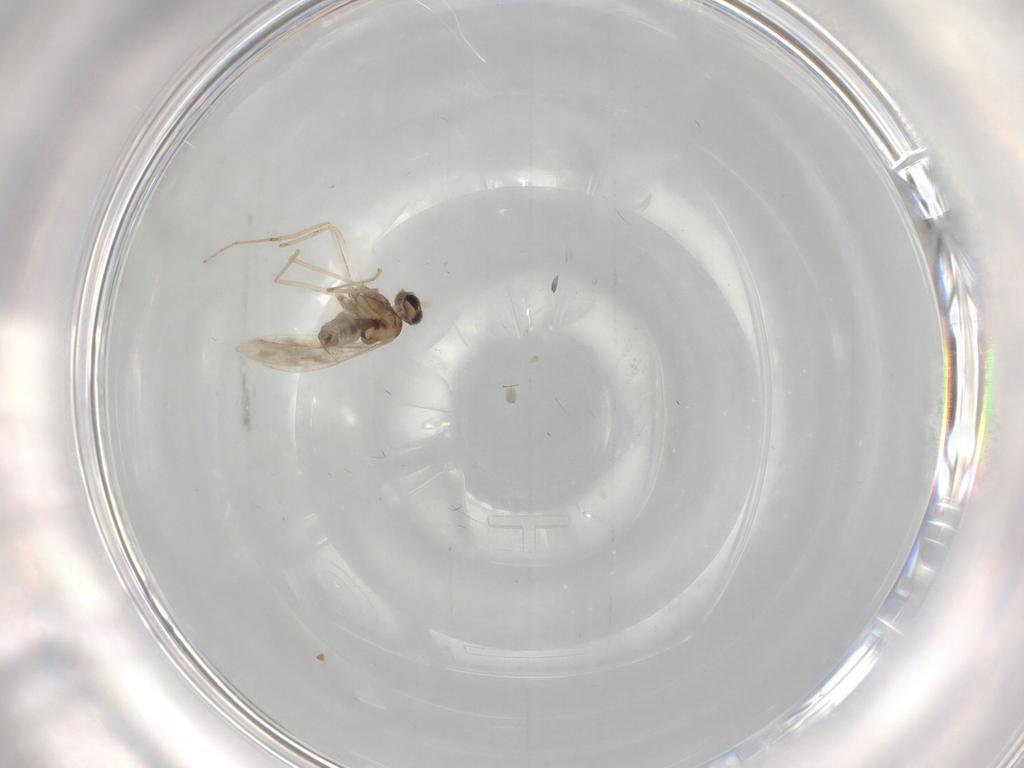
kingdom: Animalia
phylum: Arthropoda
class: Insecta
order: Diptera
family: Cecidomyiidae
